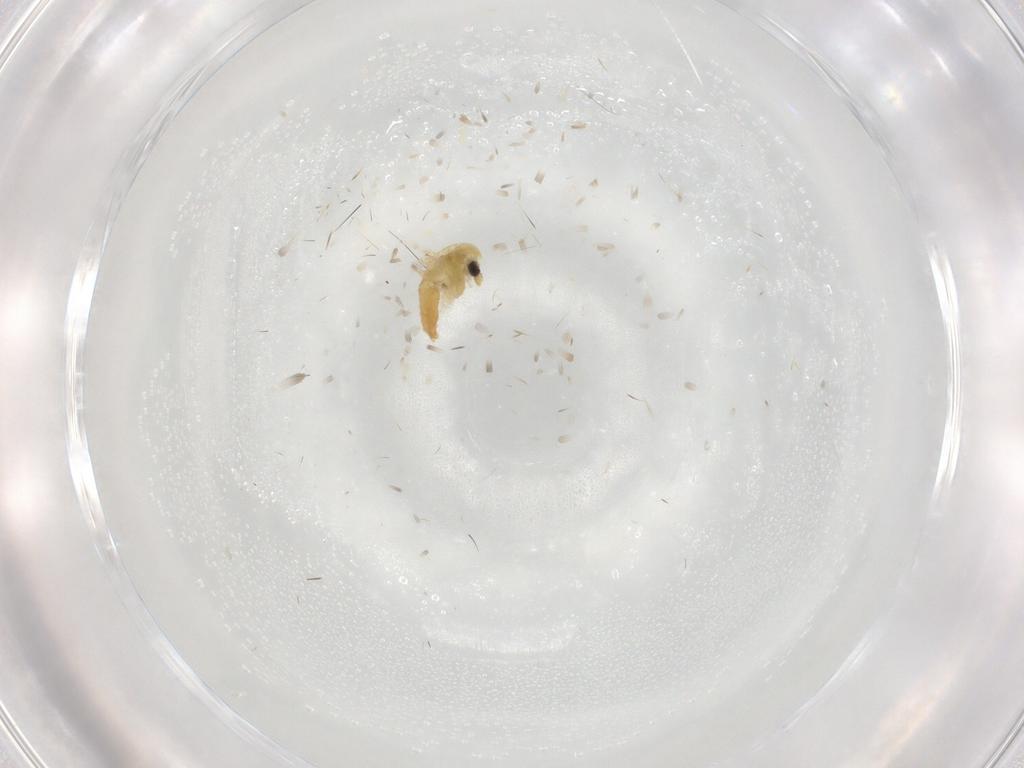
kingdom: Animalia
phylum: Arthropoda
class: Insecta
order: Diptera
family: Chironomidae
